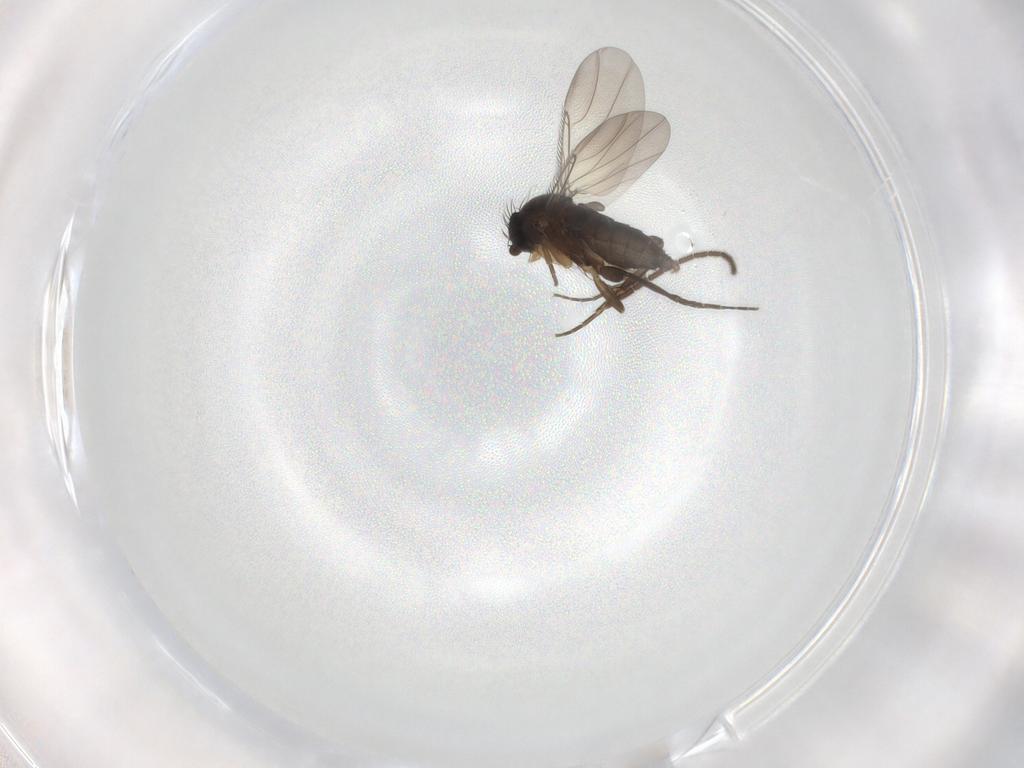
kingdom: Animalia
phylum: Arthropoda
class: Insecta
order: Diptera
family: Phoridae
